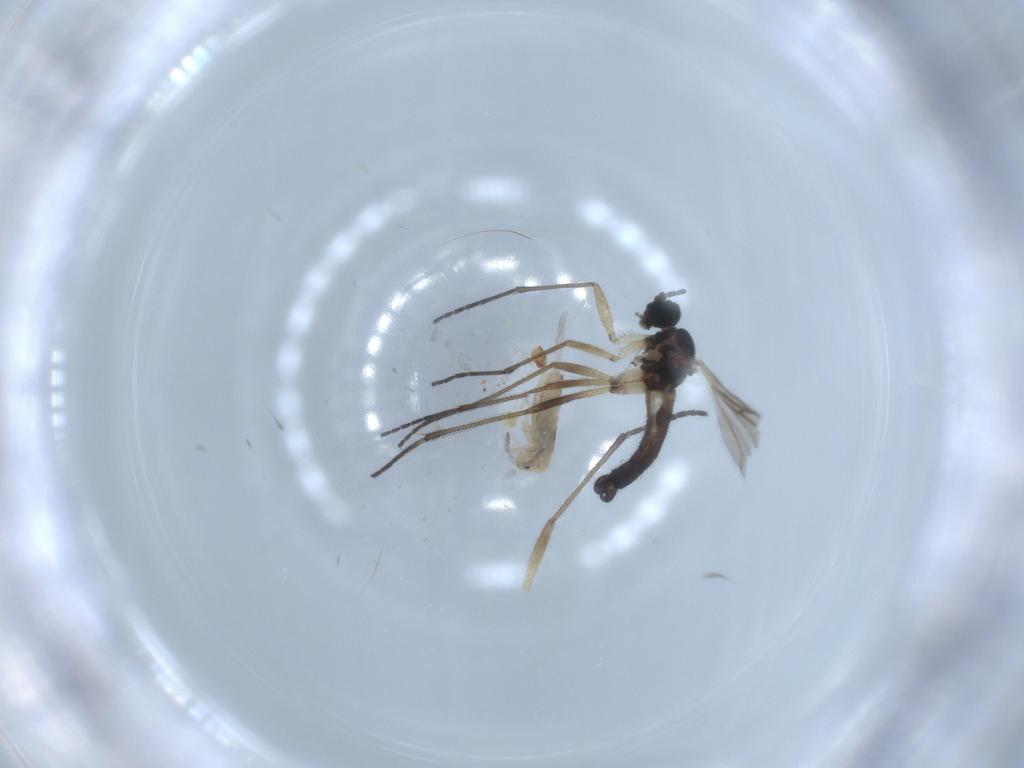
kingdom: Animalia
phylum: Arthropoda
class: Insecta
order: Diptera
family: Sciaridae
